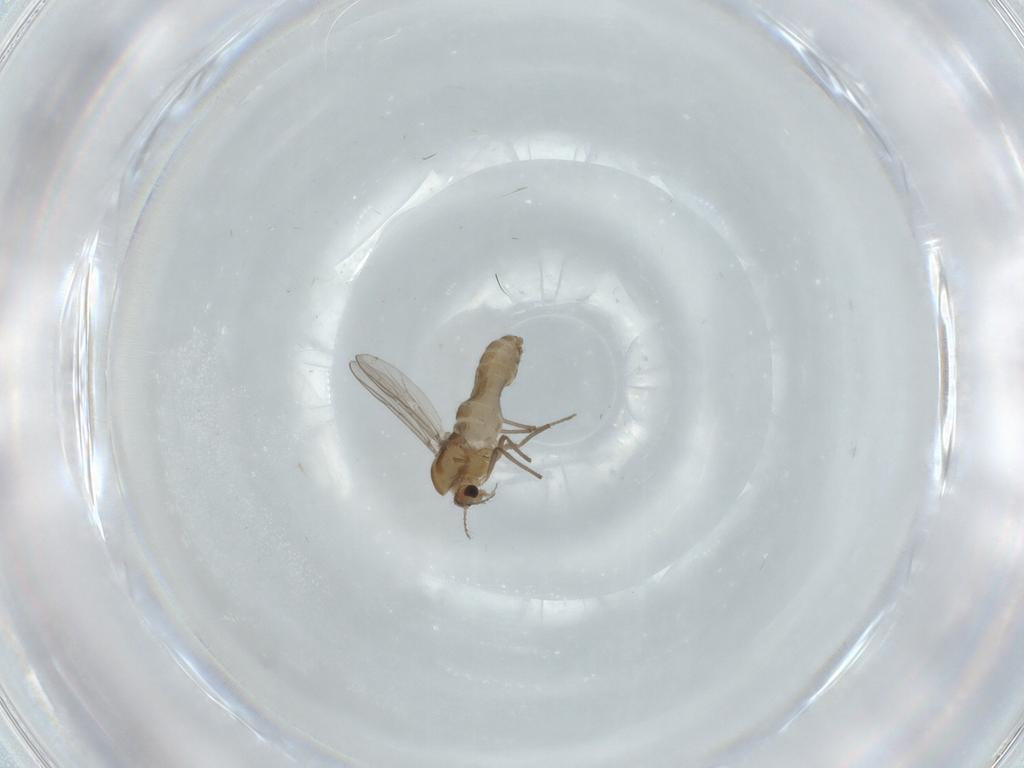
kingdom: Animalia
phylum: Arthropoda
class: Insecta
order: Diptera
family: Chironomidae
